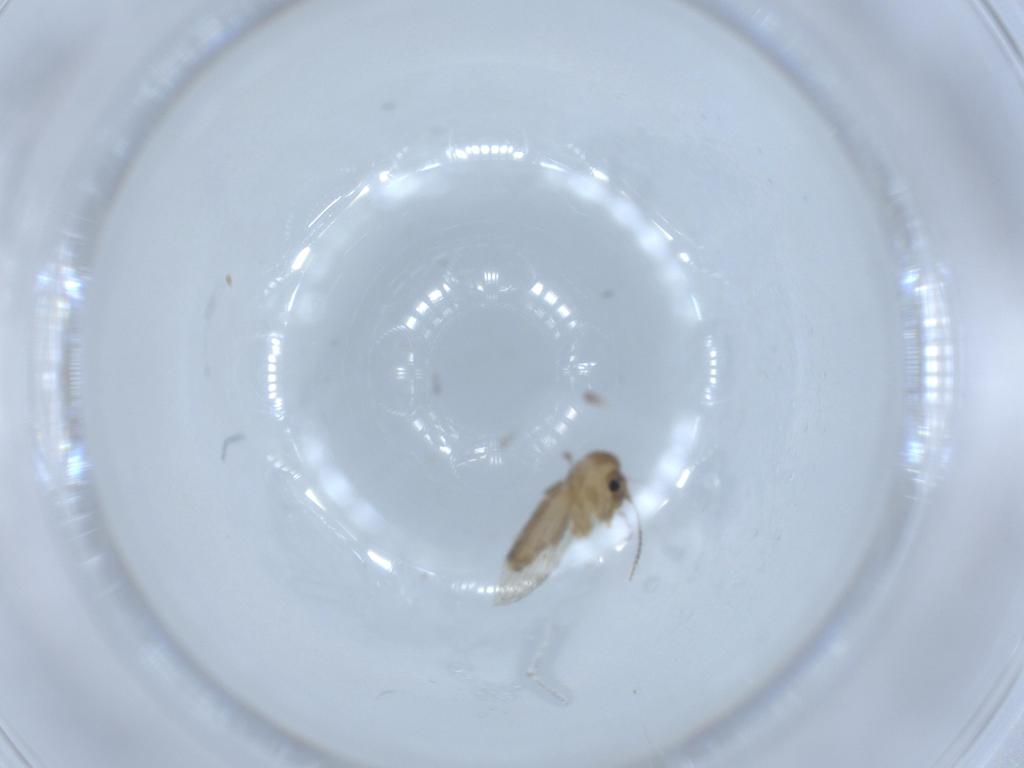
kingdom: Animalia
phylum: Arthropoda
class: Insecta
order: Diptera
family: Psychodidae
